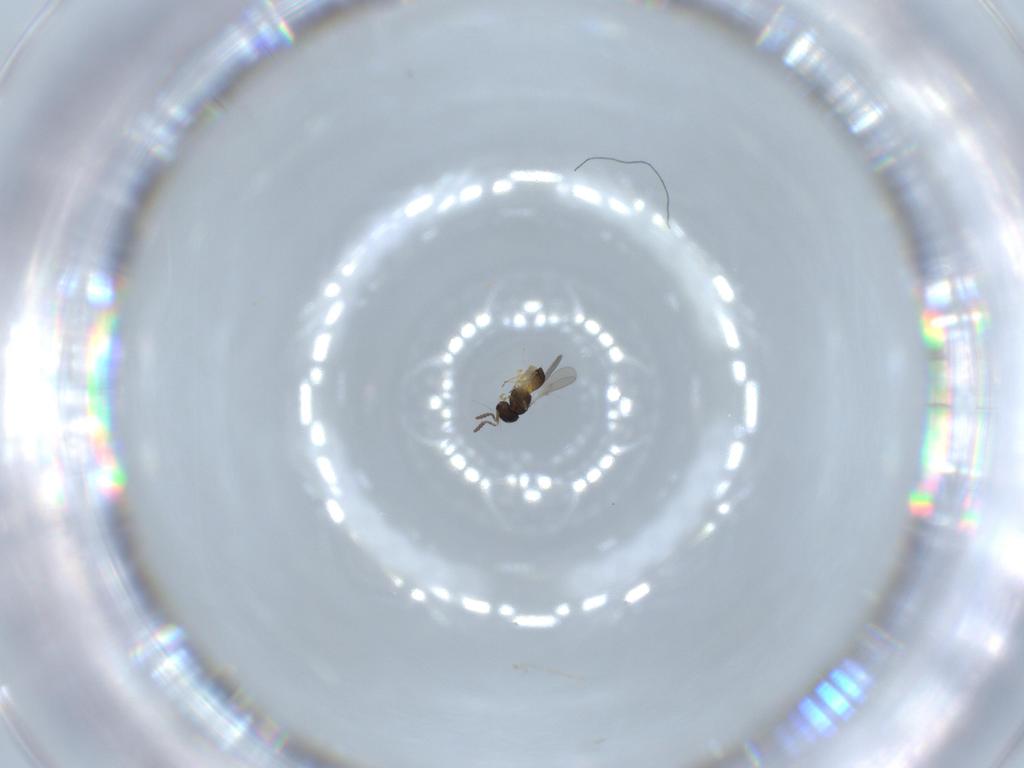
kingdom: Animalia
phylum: Arthropoda
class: Insecta
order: Hymenoptera
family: Scelionidae
